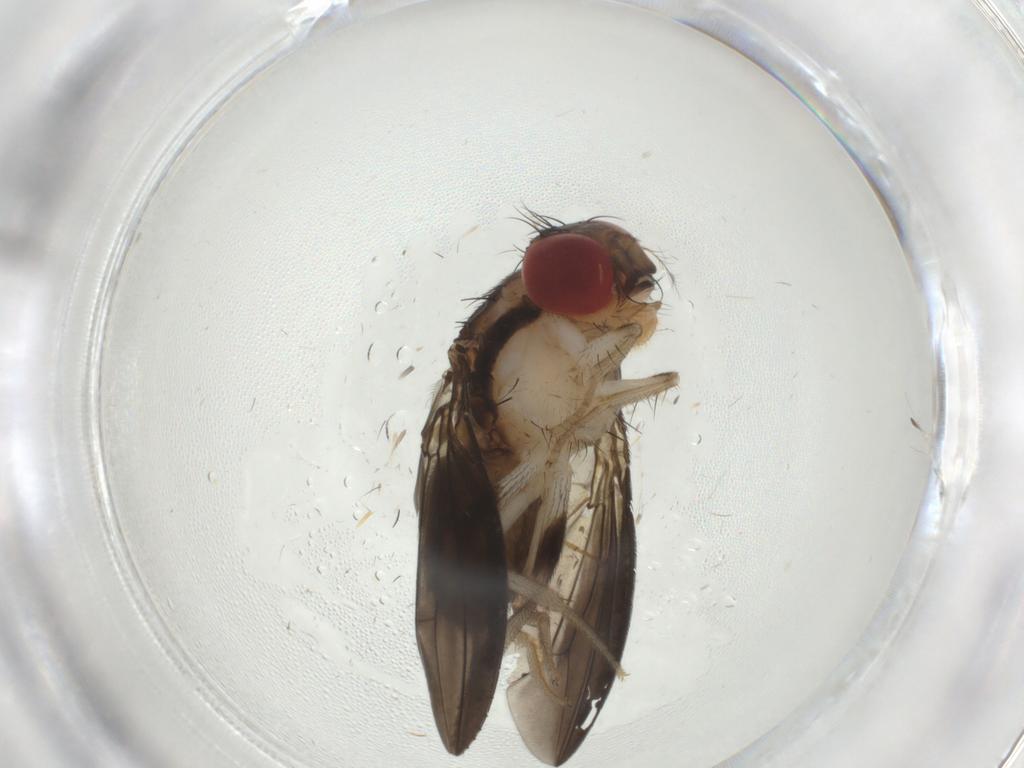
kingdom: Animalia
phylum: Arthropoda
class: Insecta
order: Diptera
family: Drosophilidae
